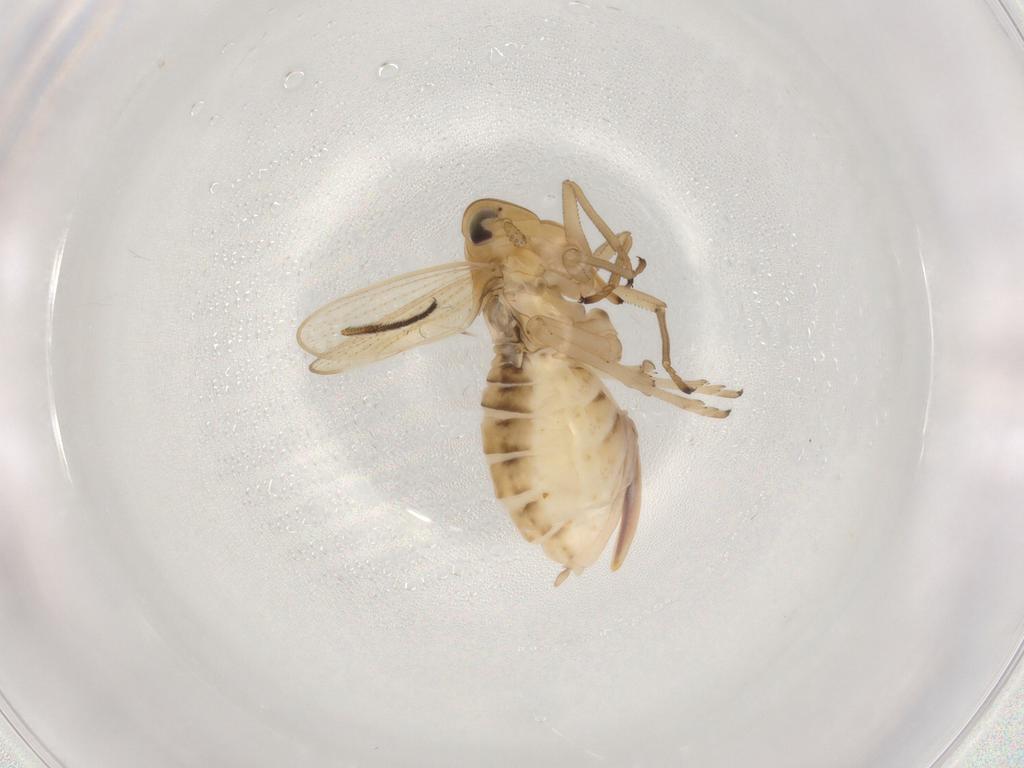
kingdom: Animalia
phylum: Arthropoda
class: Insecta
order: Hemiptera
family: Delphacidae
